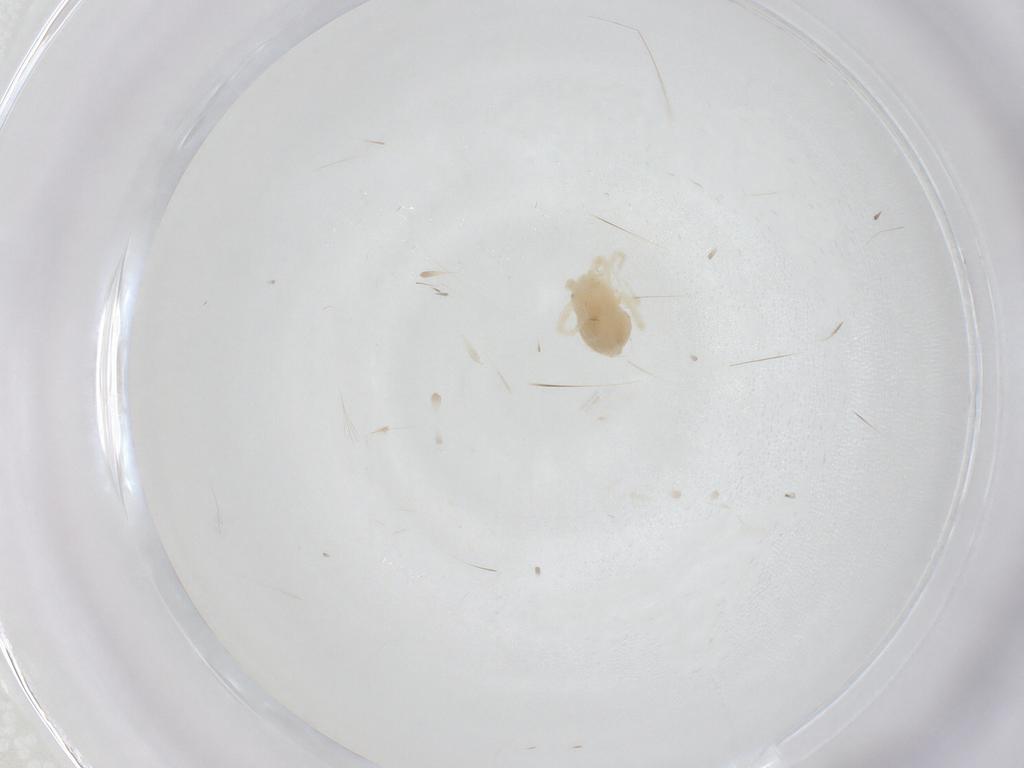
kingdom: Animalia
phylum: Arthropoda
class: Arachnida
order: Trombidiformes
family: Anystidae
